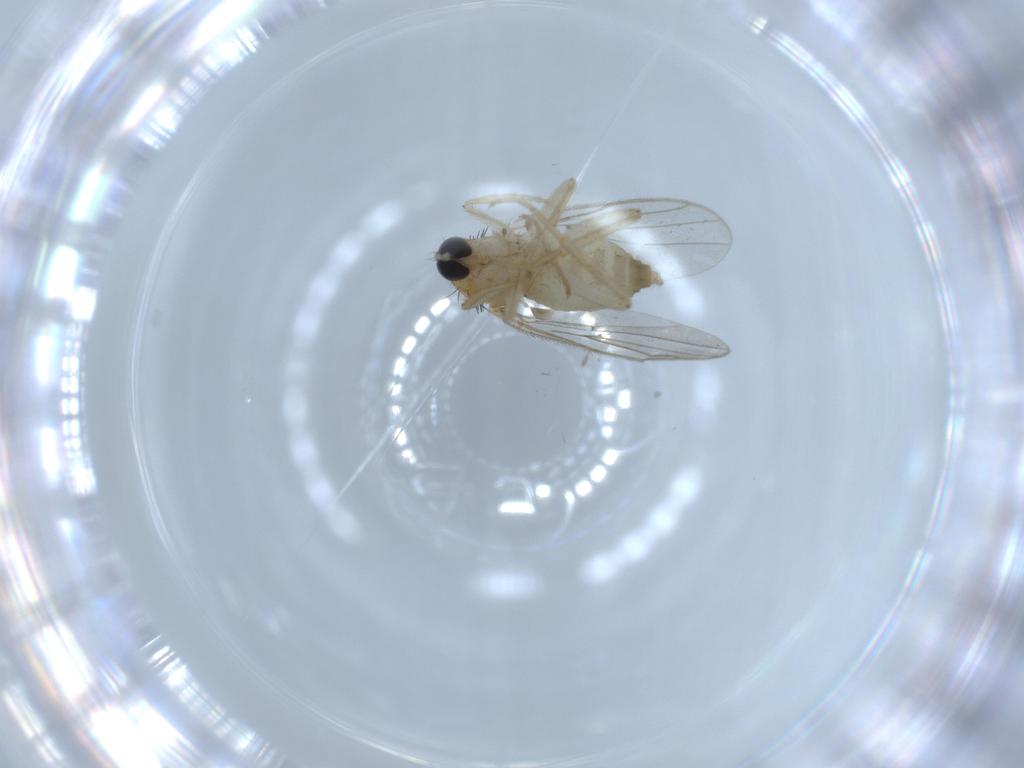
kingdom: Animalia
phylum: Arthropoda
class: Insecta
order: Diptera
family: Hybotidae
